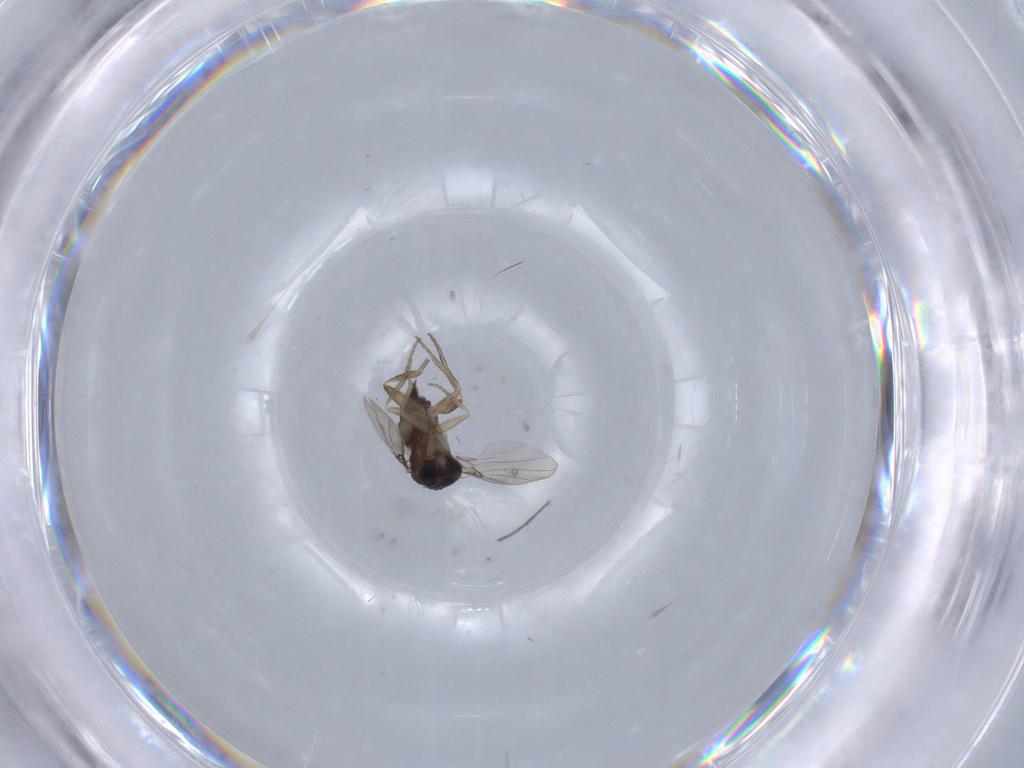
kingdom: Animalia
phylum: Arthropoda
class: Insecta
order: Diptera
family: Phoridae
